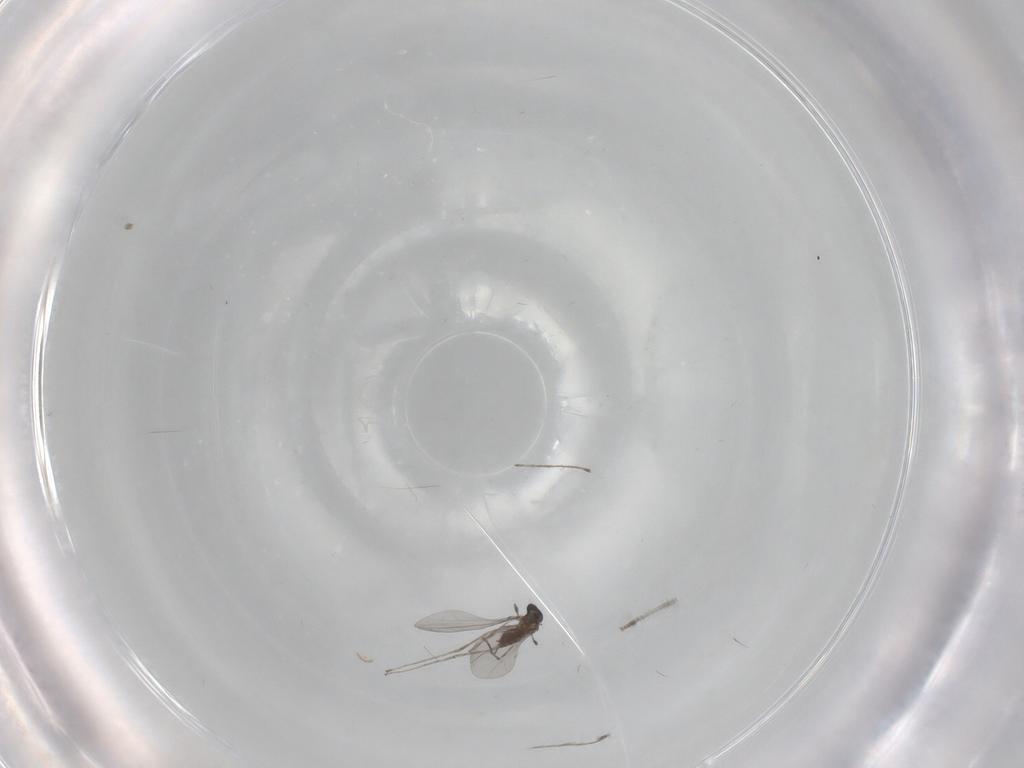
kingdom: Animalia
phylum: Arthropoda
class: Insecta
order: Diptera
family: Cecidomyiidae
